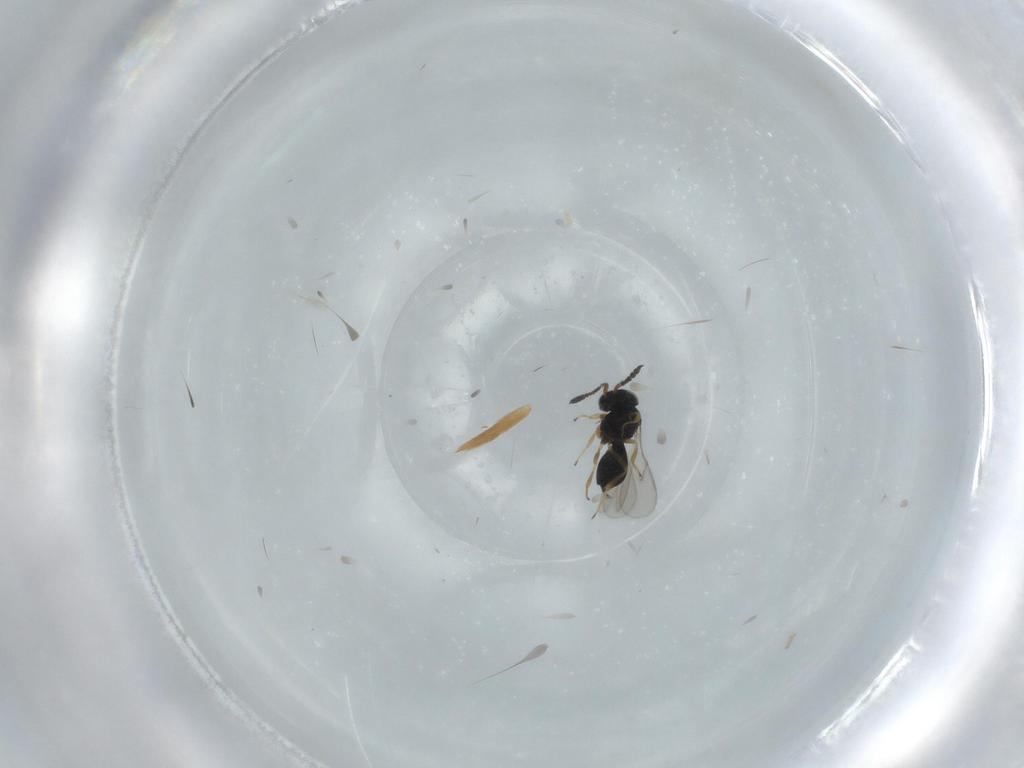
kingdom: Animalia
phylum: Arthropoda
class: Insecta
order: Hymenoptera
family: Scelionidae
